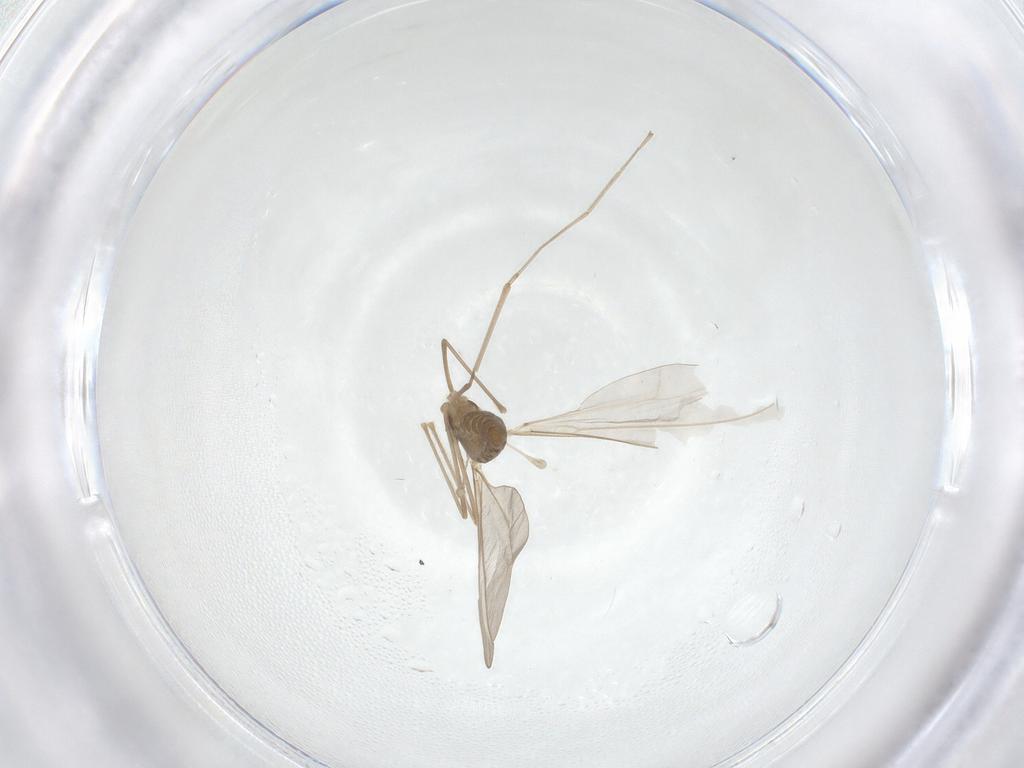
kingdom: Animalia
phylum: Arthropoda
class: Insecta
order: Diptera
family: Cecidomyiidae
